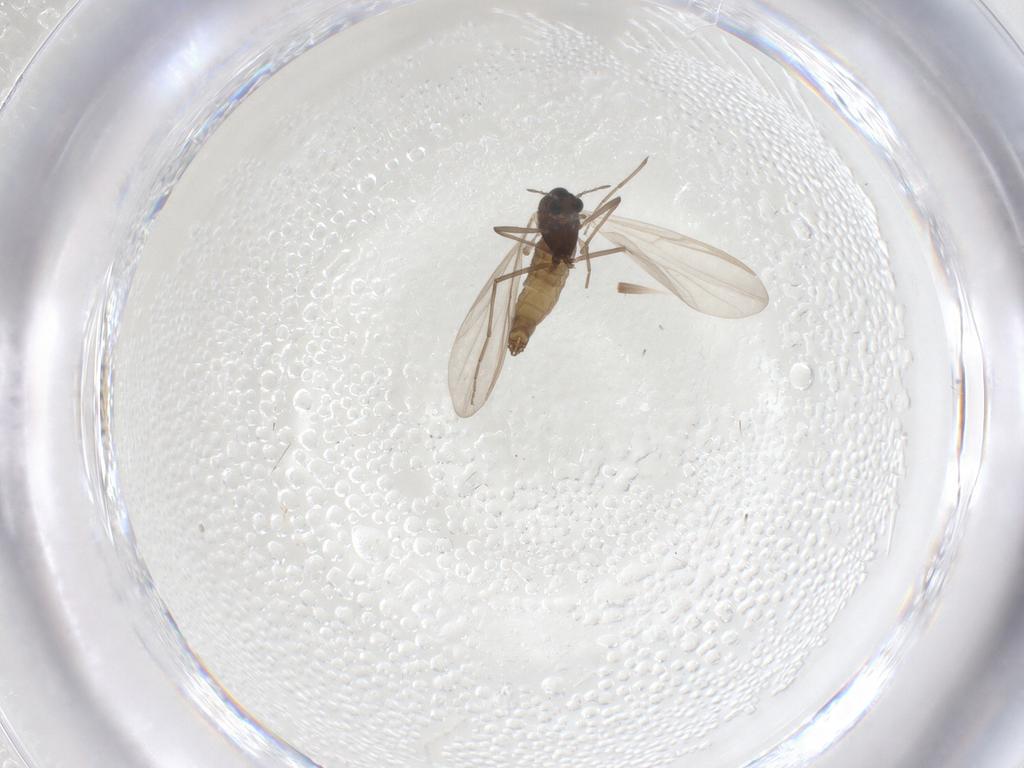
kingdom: Animalia
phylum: Arthropoda
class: Insecta
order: Diptera
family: Chironomidae
